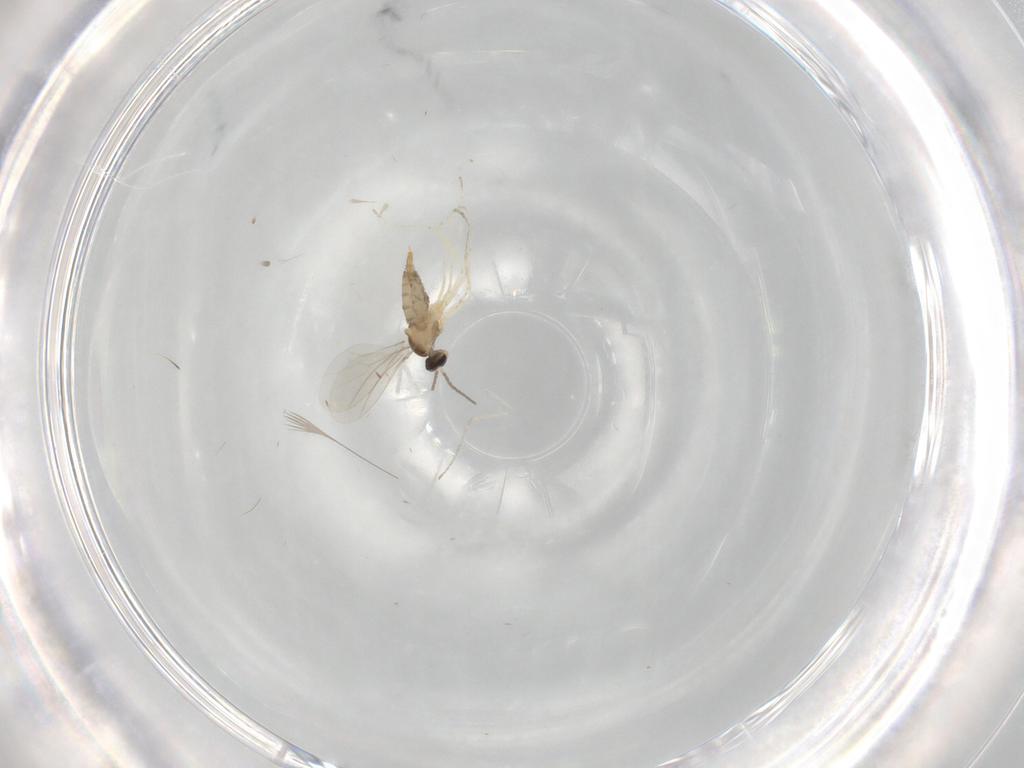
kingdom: Animalia
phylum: Arthropoda
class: Insecta
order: Diptera
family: Cecidomyiidae
